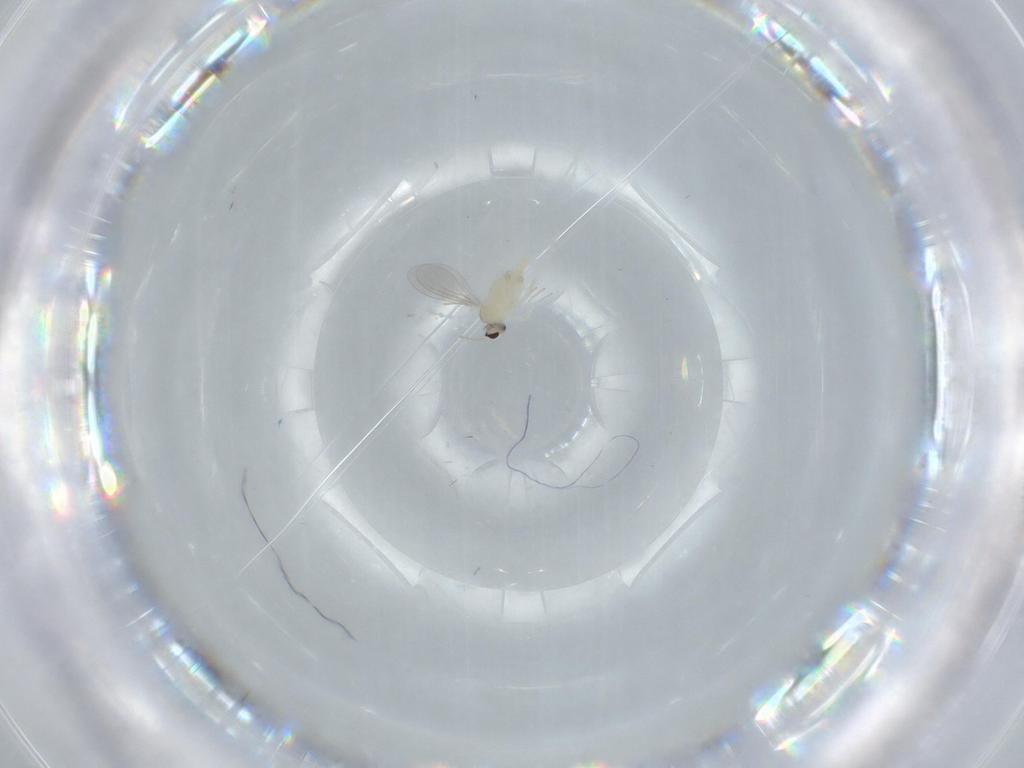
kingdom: Animalia
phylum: Arthropoda
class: Insecta
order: Diptera
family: Cecidomyiidae
